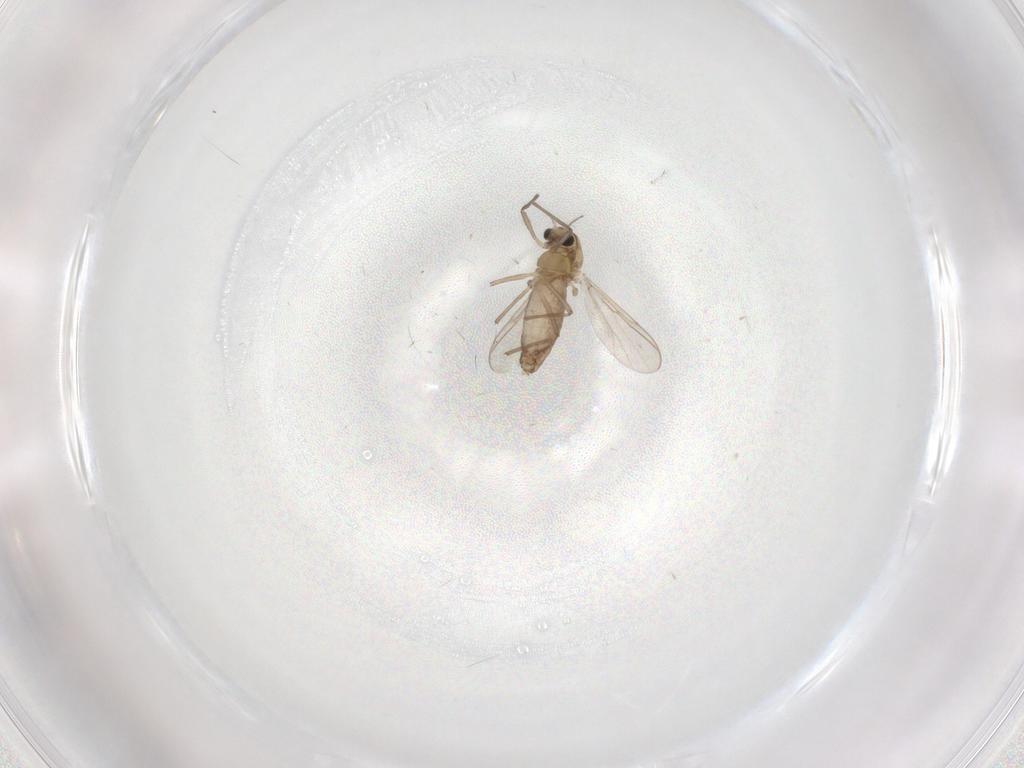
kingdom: Animalia
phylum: Arthropoda
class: Insecta
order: Diptera
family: Chironomidae
